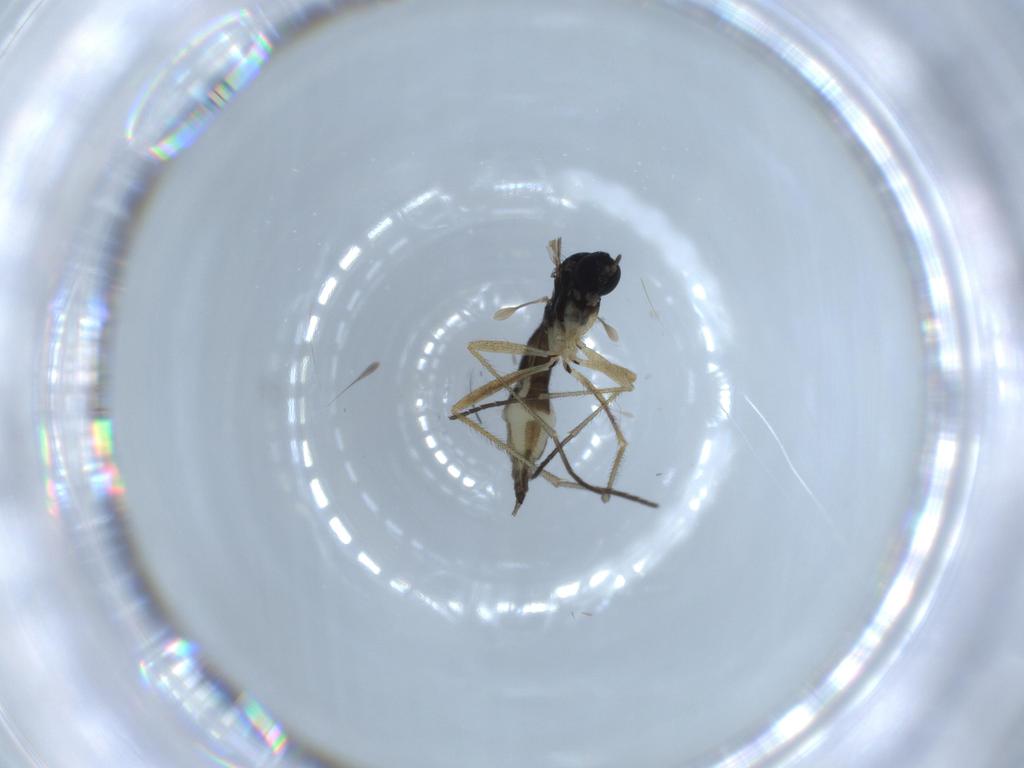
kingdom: Animalia
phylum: Arthropoda
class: Insecta
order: Diptera
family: Sciaridae
